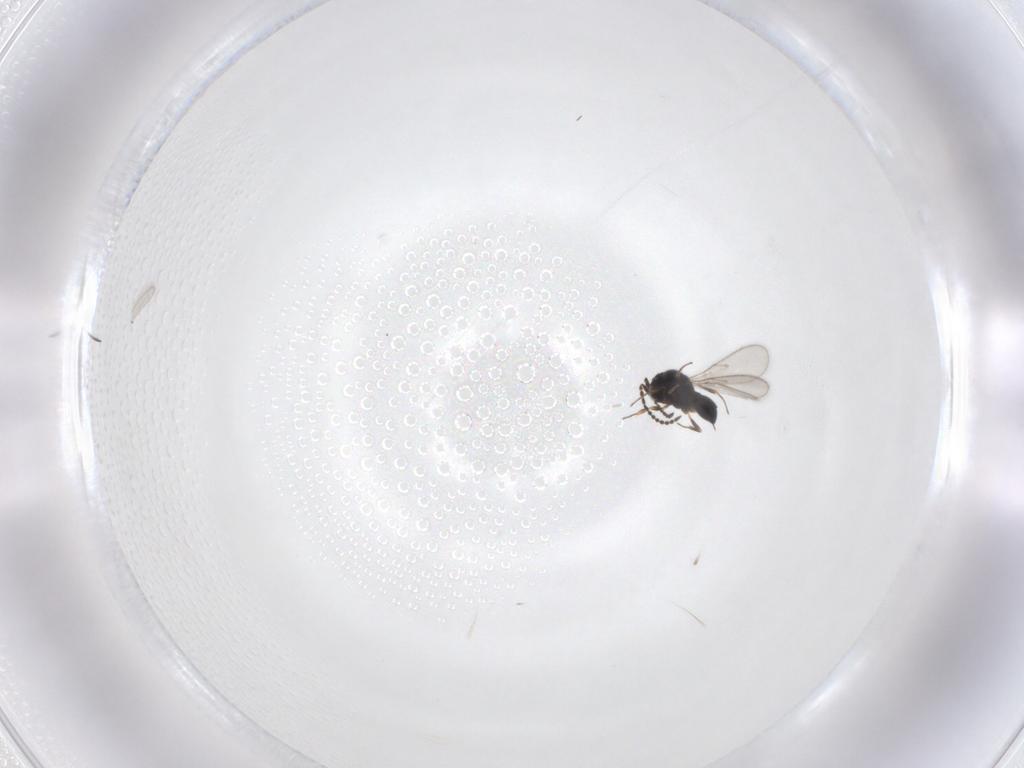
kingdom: Animalia
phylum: Arthropoda
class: Insecta
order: Hymenoptera
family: Scelionidae
